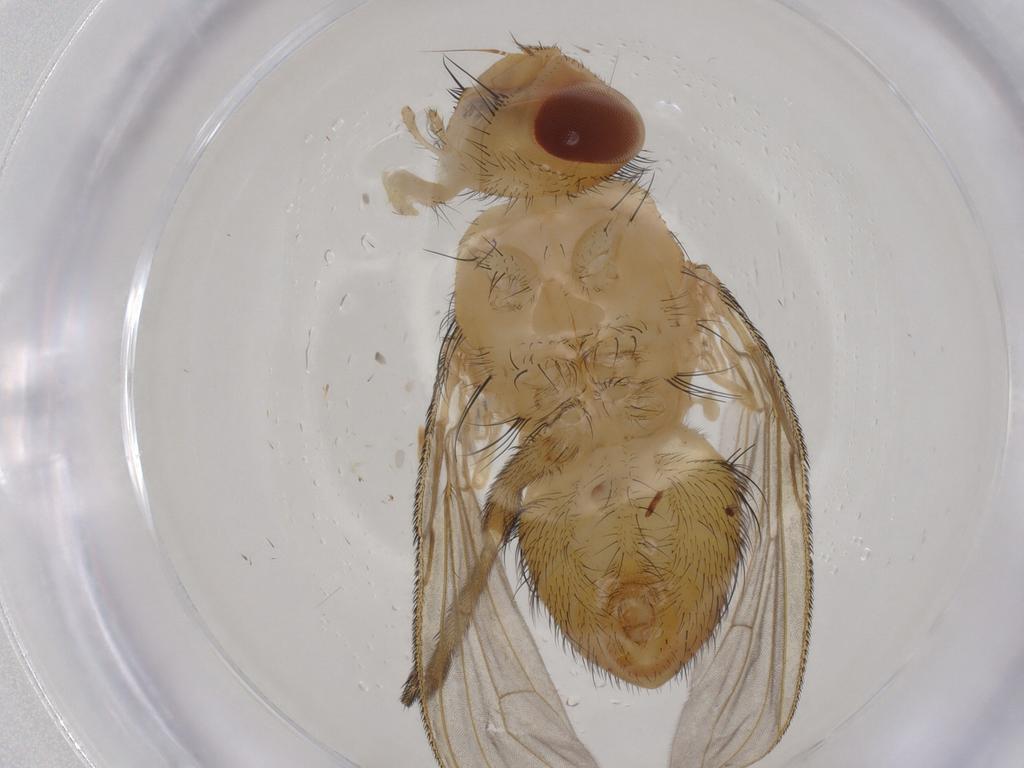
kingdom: Animalia
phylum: Arthropoda
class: Insecta
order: Diptera
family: Tachinidae
